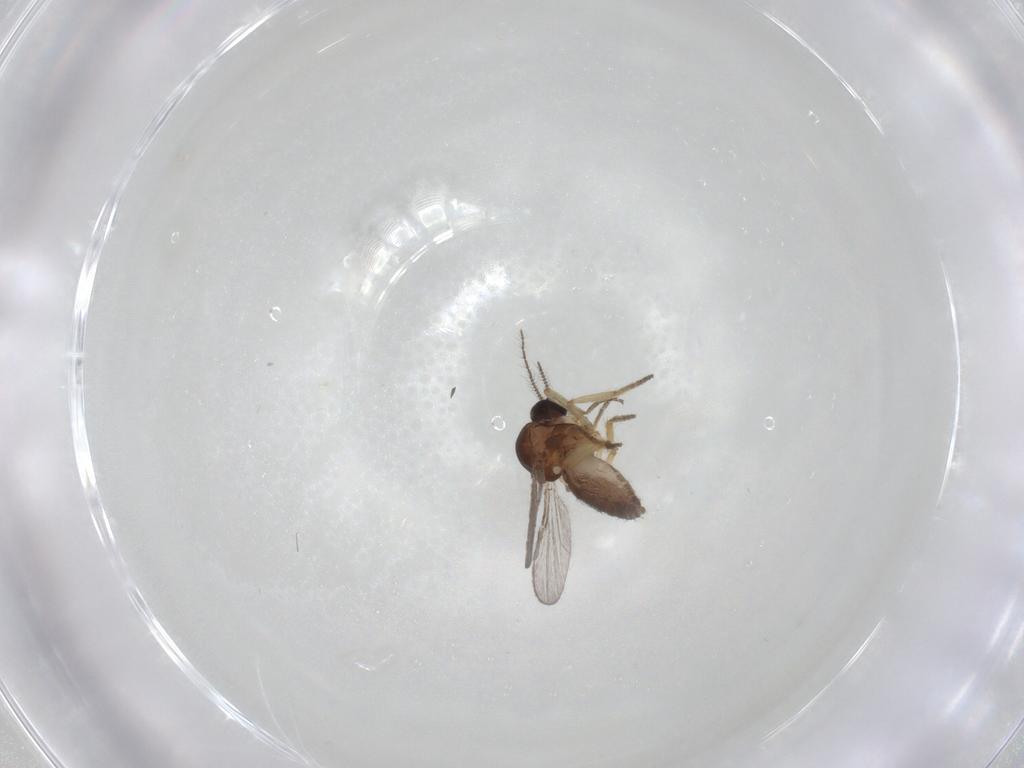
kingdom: Animalia
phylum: Arthropoda
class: Insecta
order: Diptera
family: Ceratopogonidae
